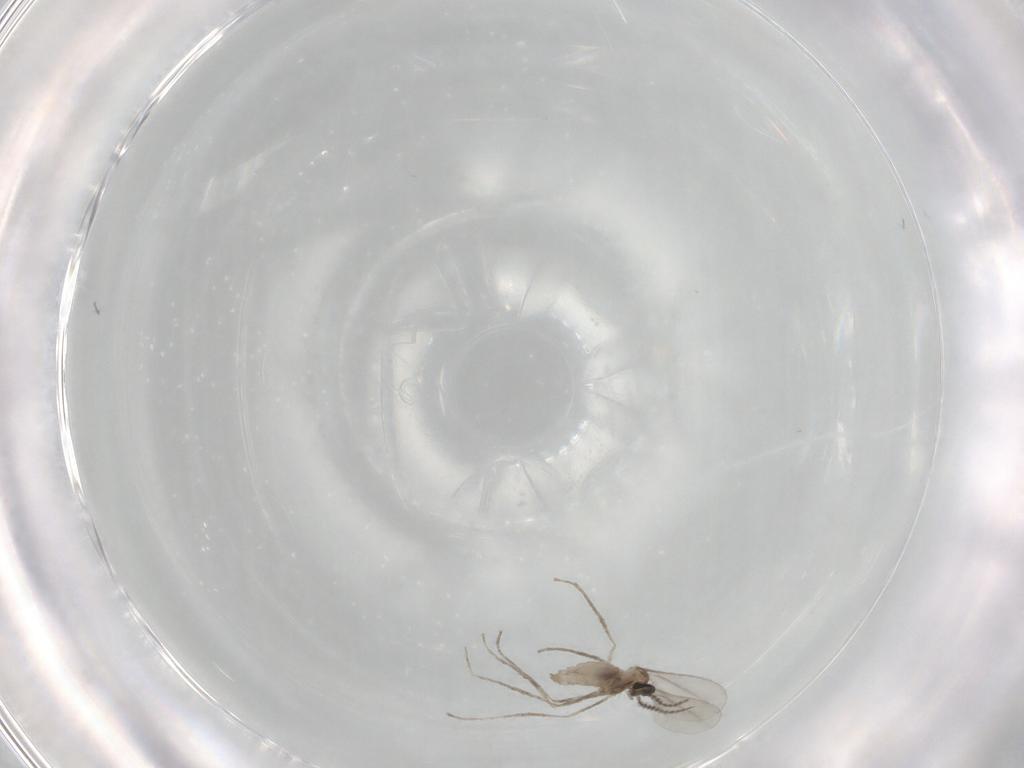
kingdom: Animalia
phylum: Arthropoda
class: Insecta
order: Diptera
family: Cecidomyiidae
